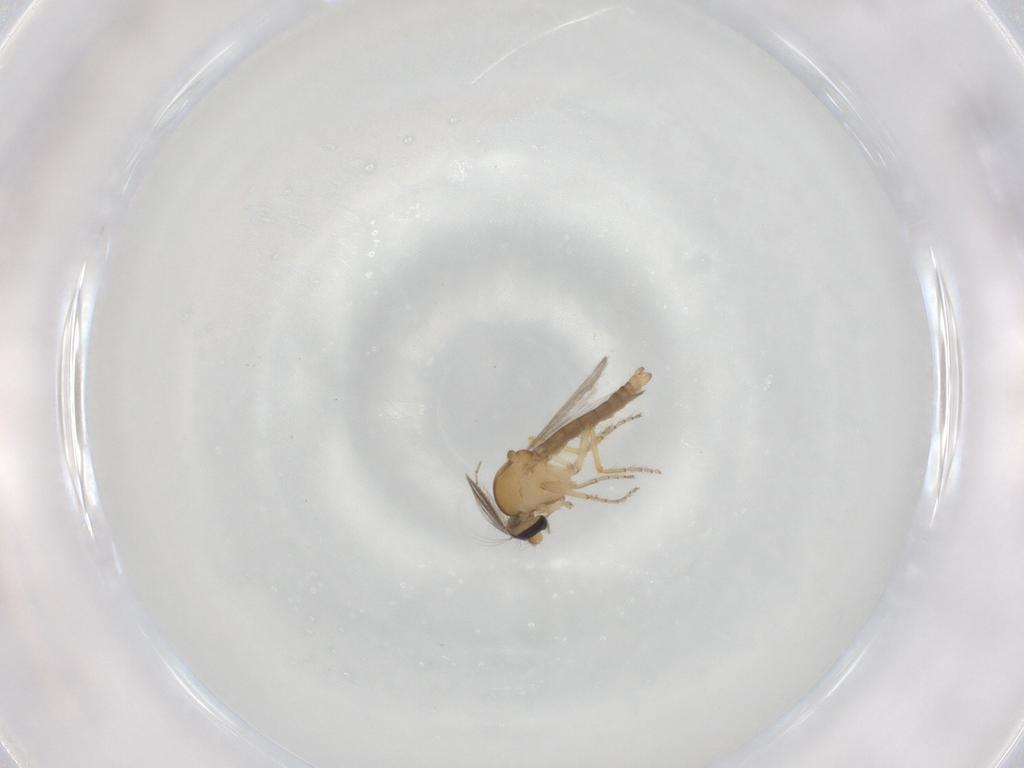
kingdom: Animalia
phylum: Arthropoda
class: Insecta
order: Diptera
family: Ceratopogonidae
